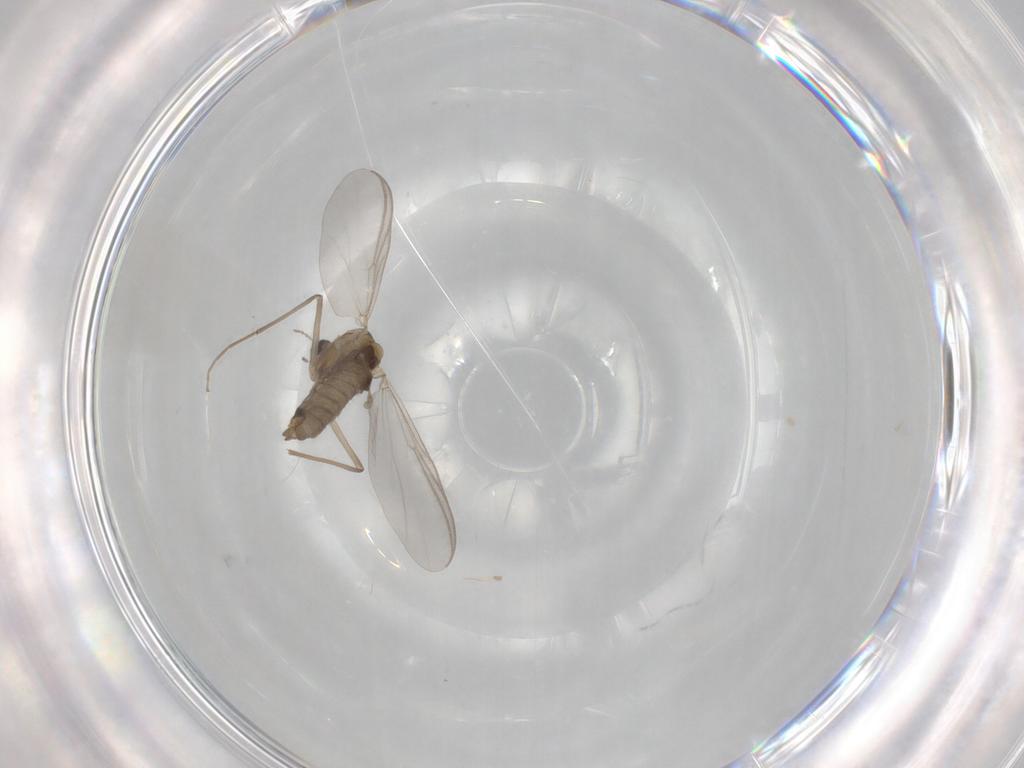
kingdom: Animalia
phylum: Arthropoda
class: Insecta
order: Diptera
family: Chironomidae
